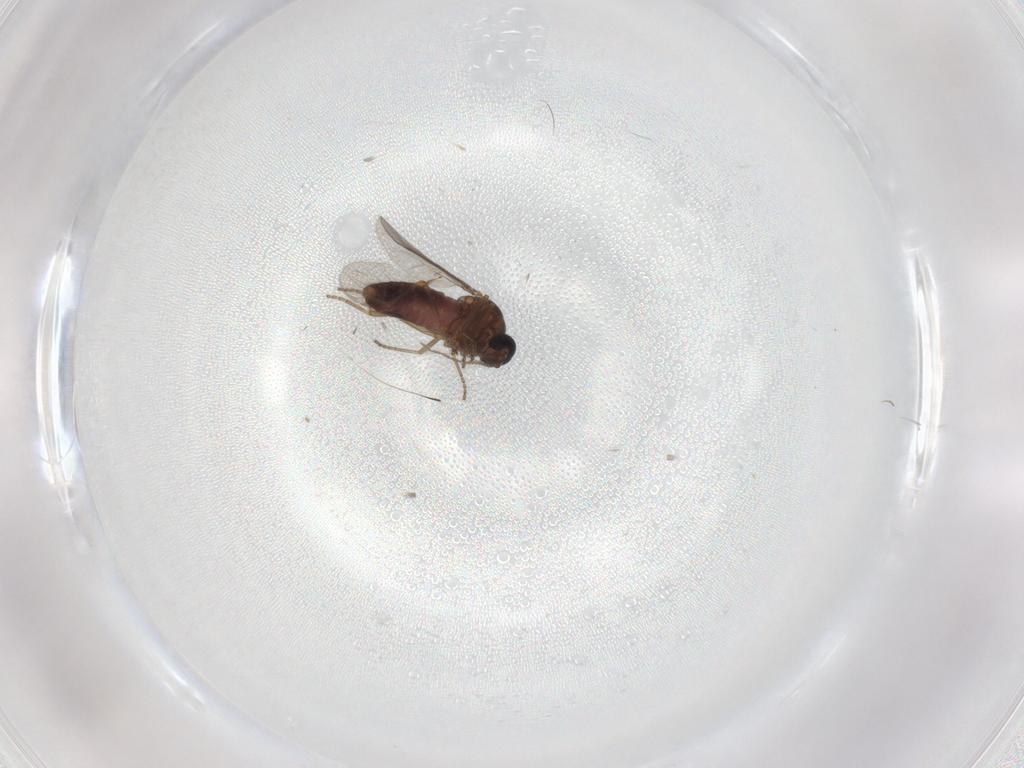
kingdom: Animalia
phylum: Arthropoda
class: Insecta
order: Diptera
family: Ceratopogonidae
